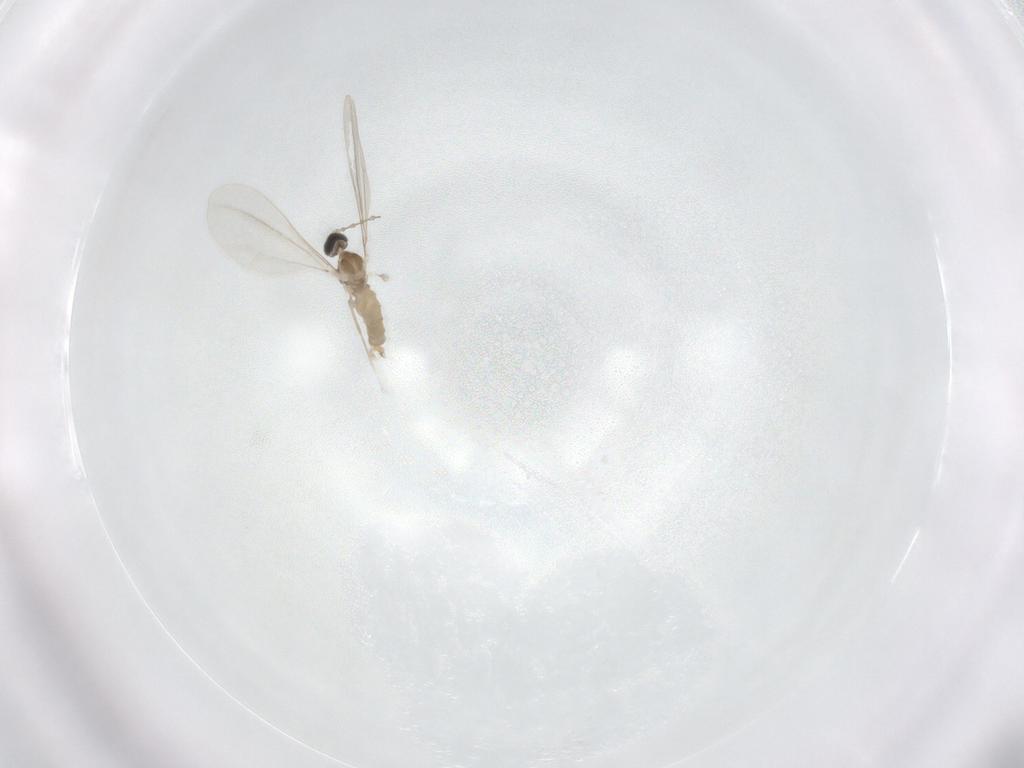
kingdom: Animalia
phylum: Arthropoda
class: Insecta
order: Diptera
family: Cecidomyiidae
